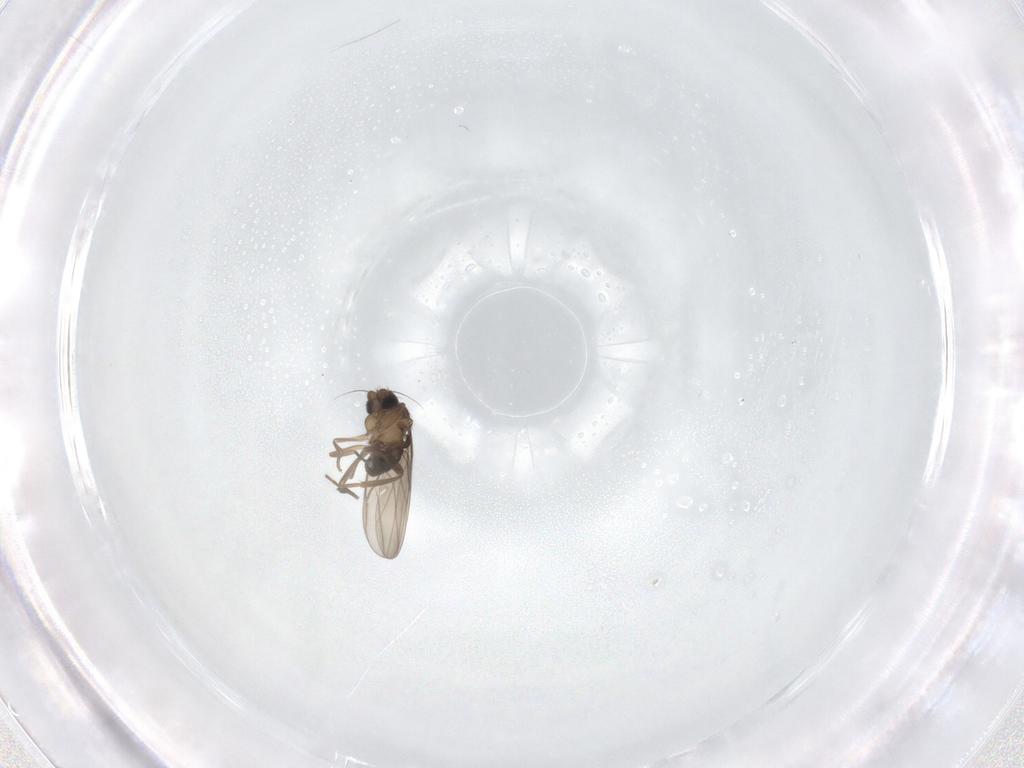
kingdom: Animalia
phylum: Arthropoda
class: Insecta
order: Diptera
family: Phoridae
